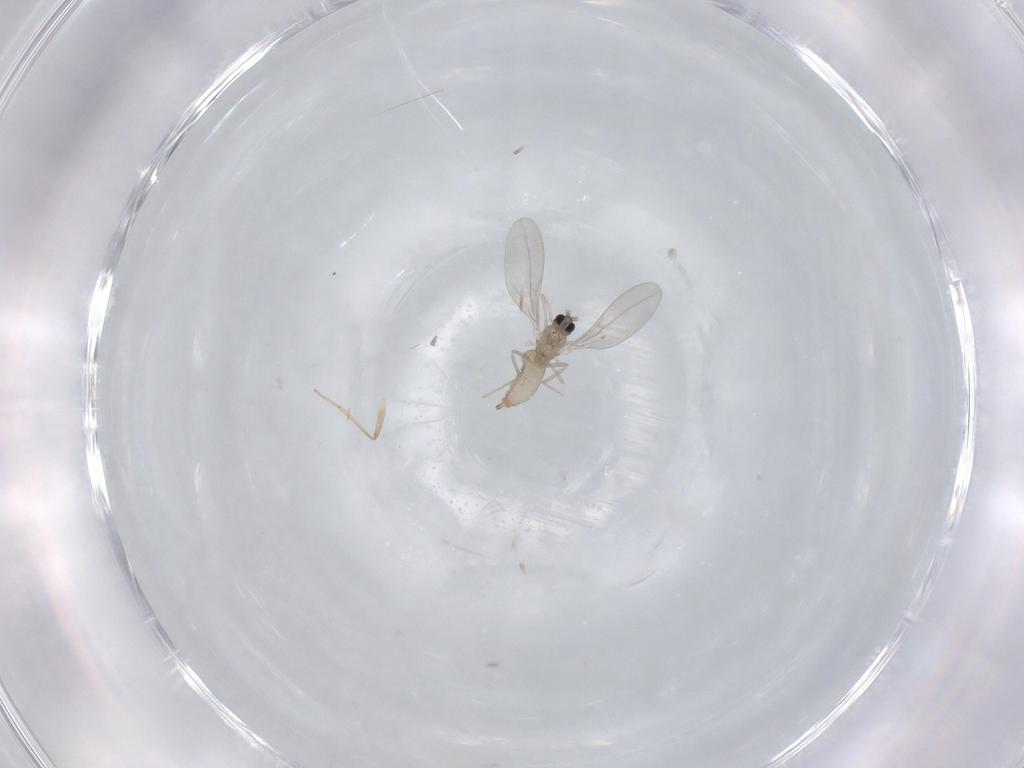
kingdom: Animalia
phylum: Arthropoda
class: Insecta
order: Diptera
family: Cecidomyiidae
